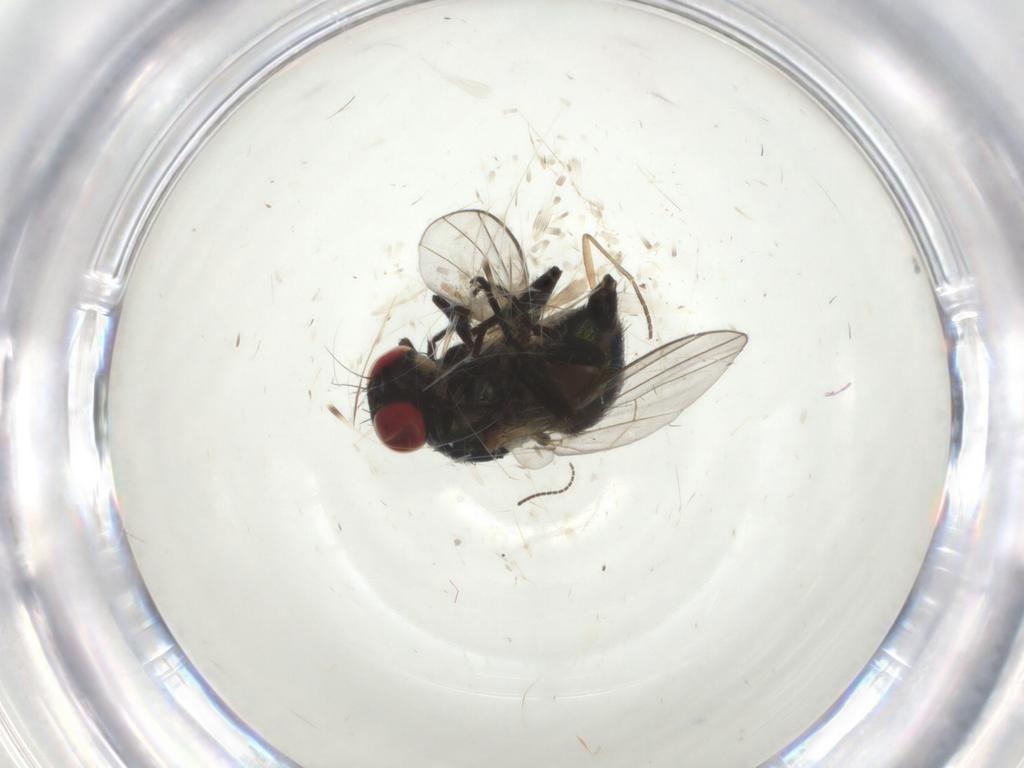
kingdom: Animalia
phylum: Arthropoda
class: Insecta
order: Diptera
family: Agromyzidae
